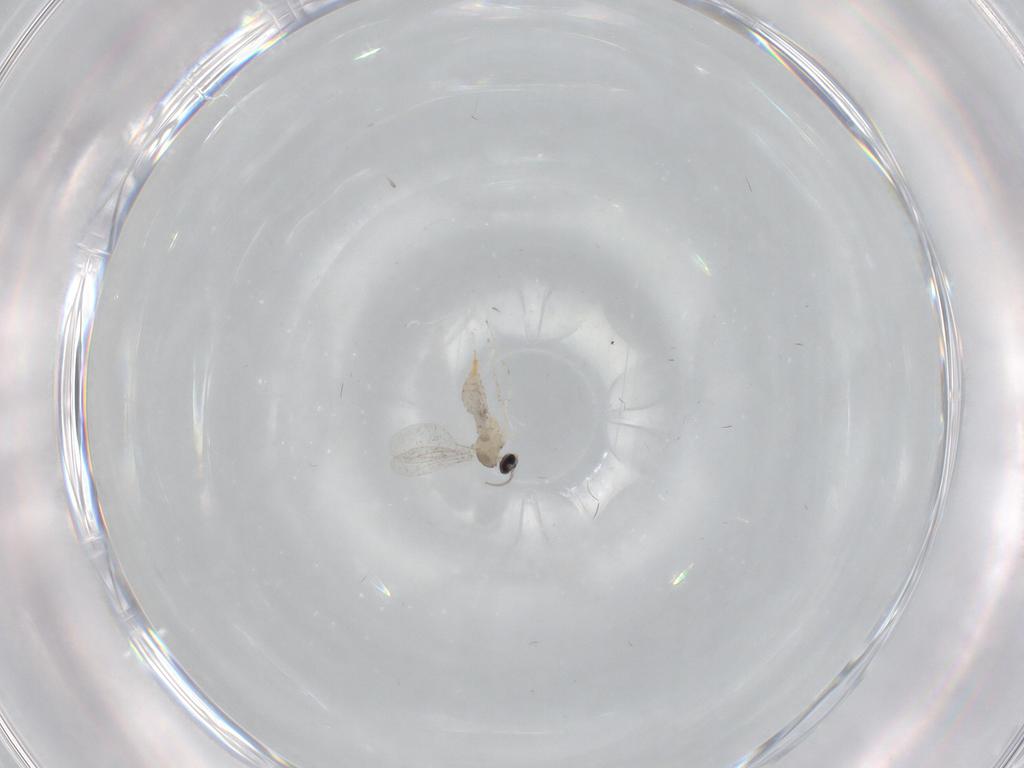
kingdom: Animalia
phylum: Arthropoda
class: Insecta
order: Diptera
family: Cecidomyiidae
